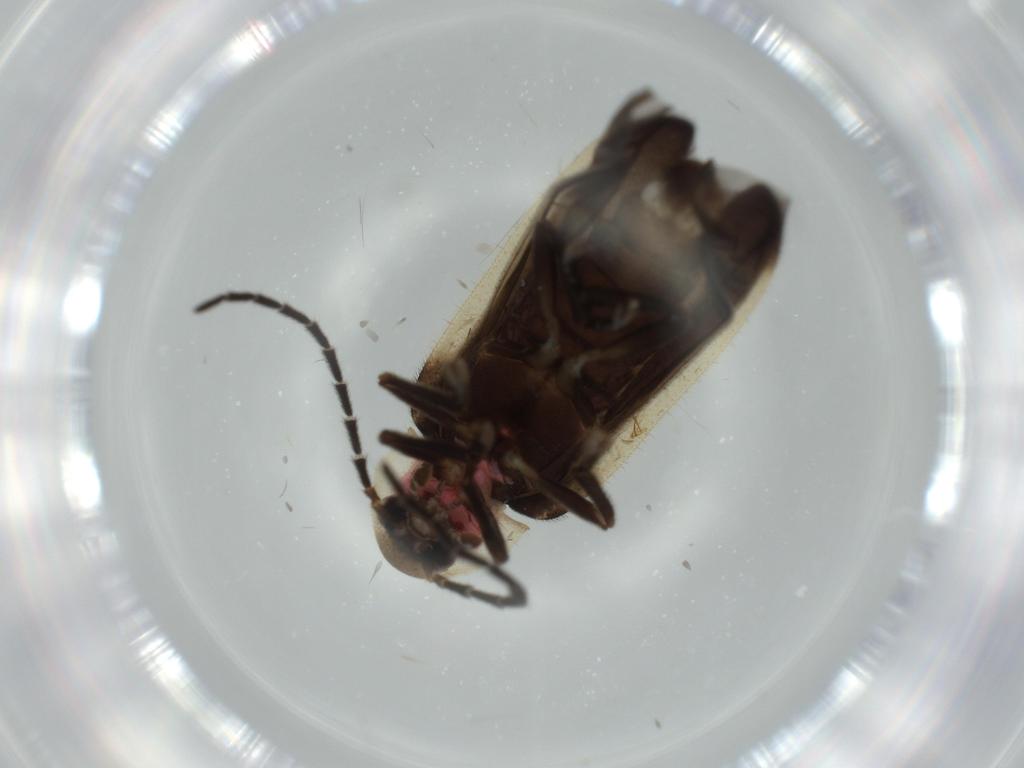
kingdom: Animalia
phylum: Arthropoda
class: Insecta
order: Coleoptera
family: Lampyridae
